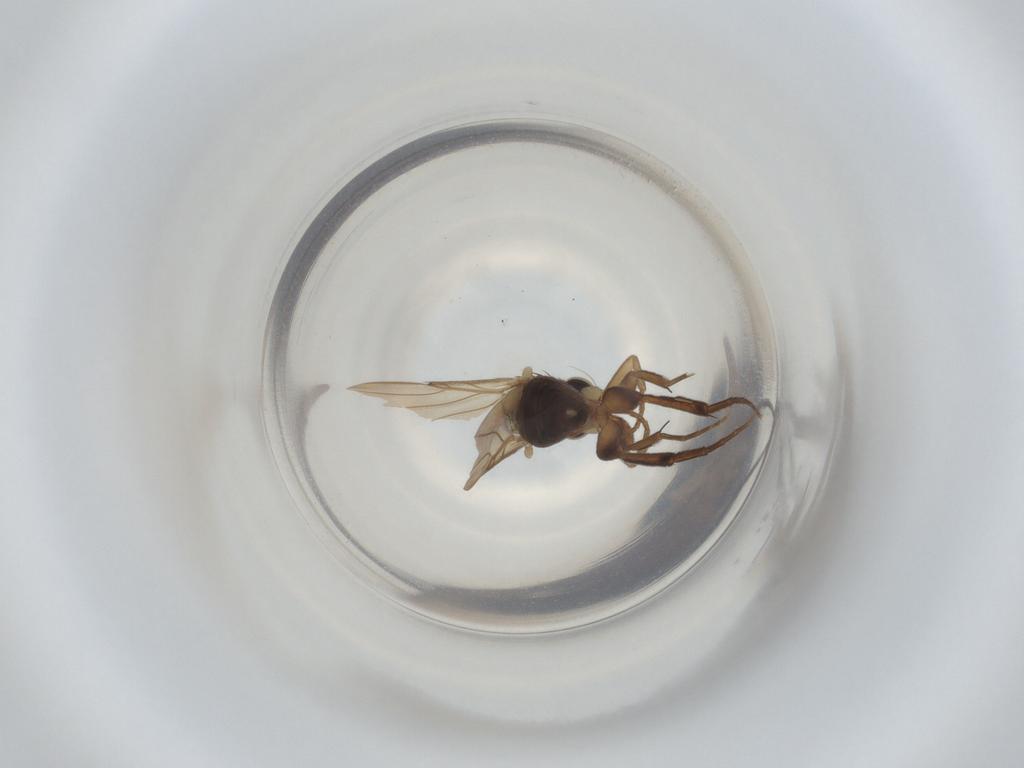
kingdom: Animalia
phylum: Arthropoda
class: Insecta
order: Diptera
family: Phoridae
